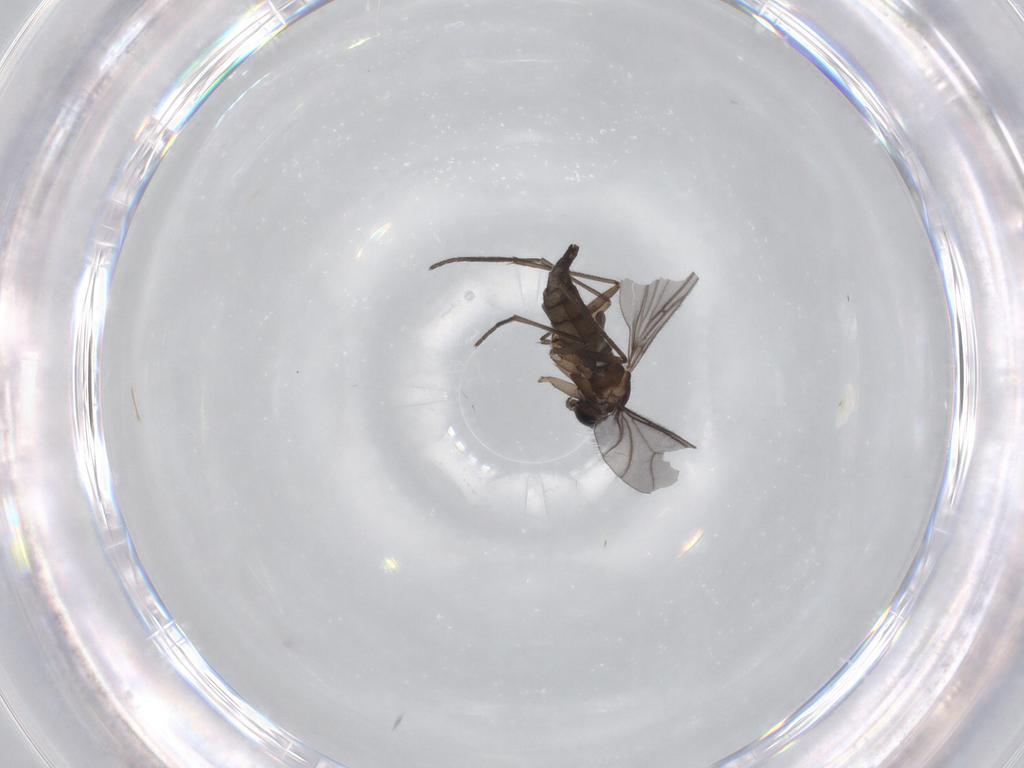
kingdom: Animalia
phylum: Arthropoda
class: Insecta
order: Diptera
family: Sciaridae
